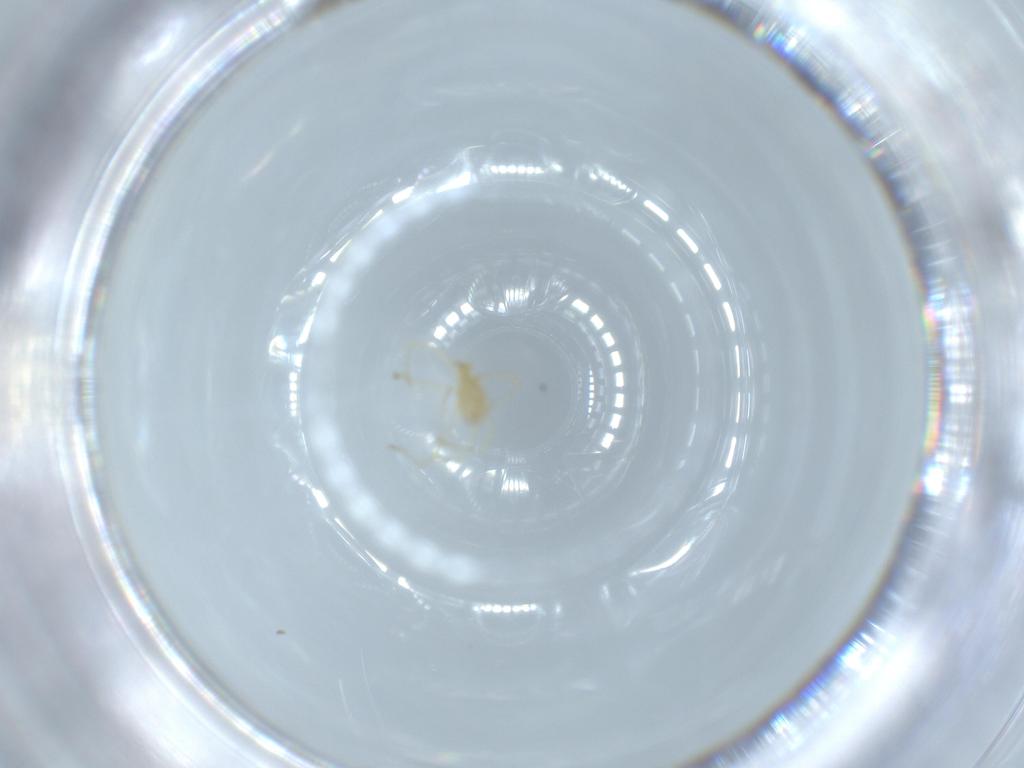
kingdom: Animalia
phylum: Arthropoda
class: Arachnida
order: Trombidiformes
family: Erythraeidae
